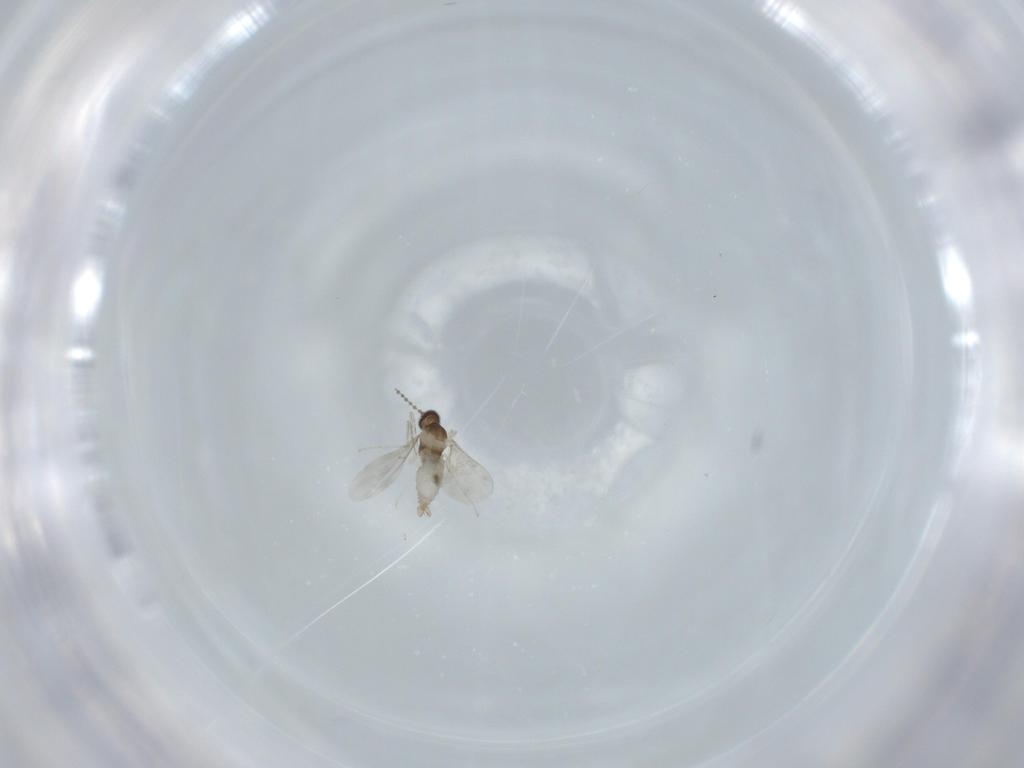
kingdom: Animalia
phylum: Arthropoda
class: Insecta
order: Diptera
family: Cecidomyiidae
